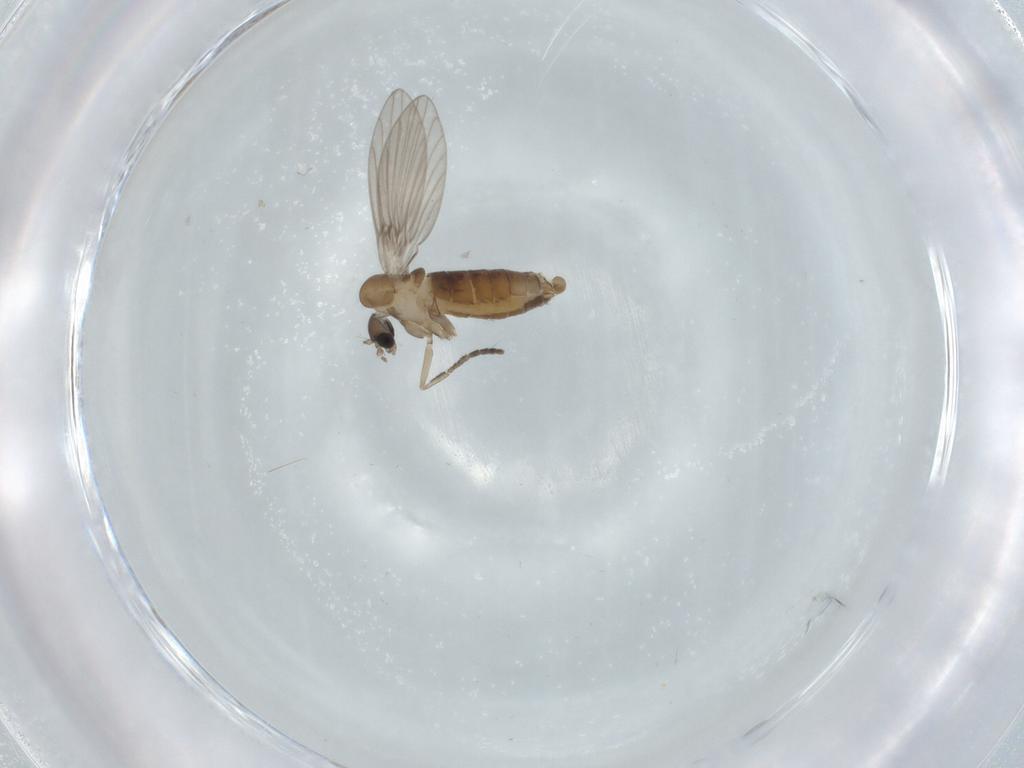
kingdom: Animalia
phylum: Arthropoda
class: Insecta
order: Diptera
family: Psychodidae
